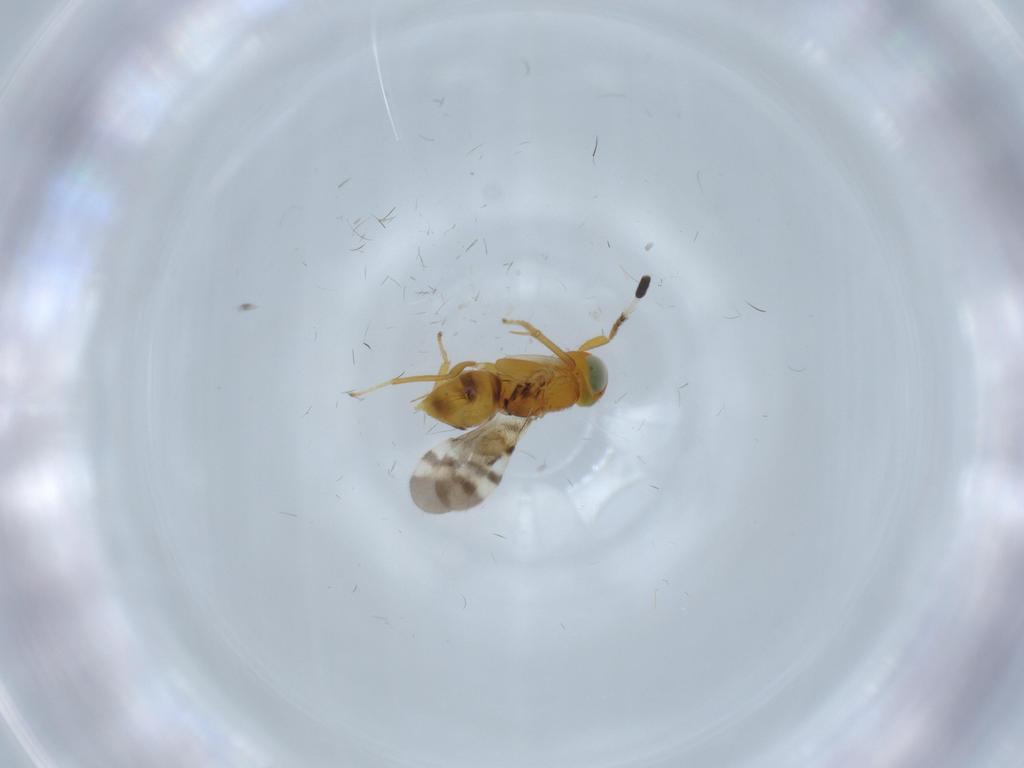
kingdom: Animalia
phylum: Arthropoda
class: Insecta
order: Hymenoptera
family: Encyrtidae
